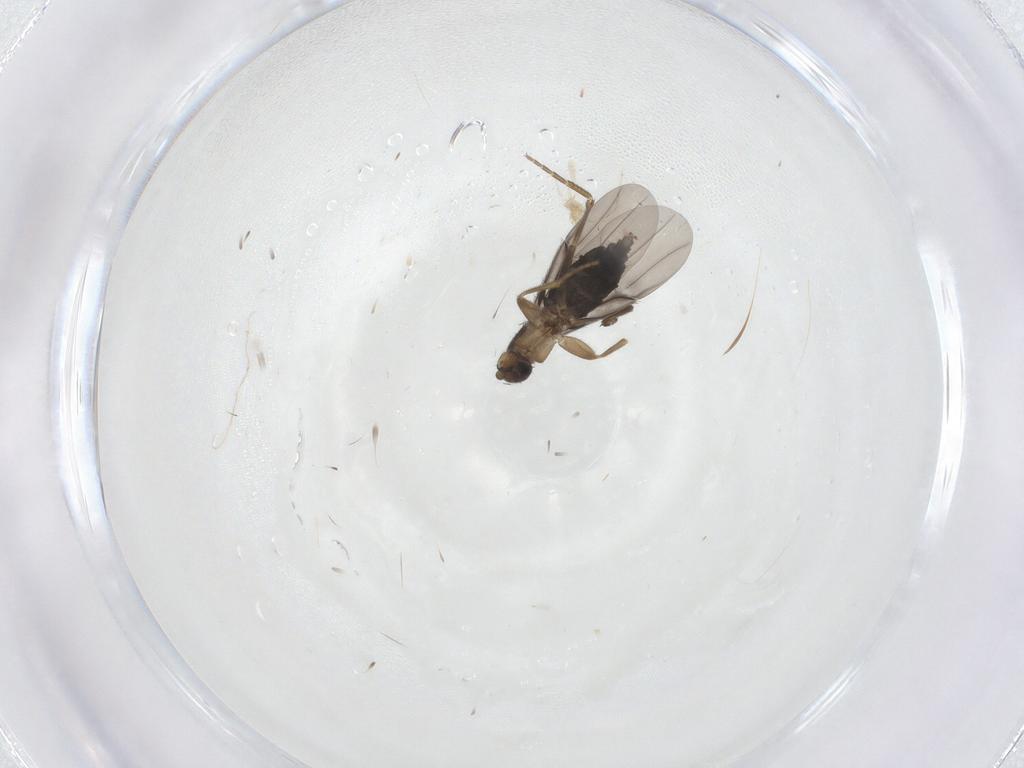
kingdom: Animalia
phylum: Arthropoda
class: Insecta
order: Diptera
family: Phoridae
